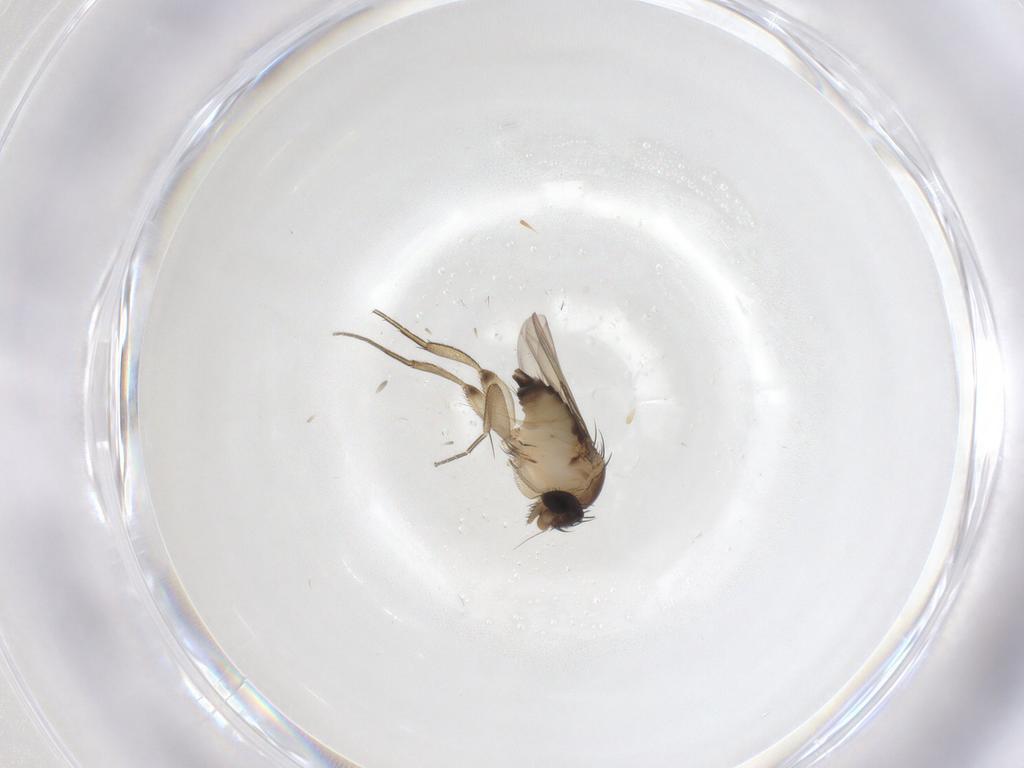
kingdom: Animalia
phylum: Arthropoda
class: Insecta
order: Diptera
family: Phoridae
